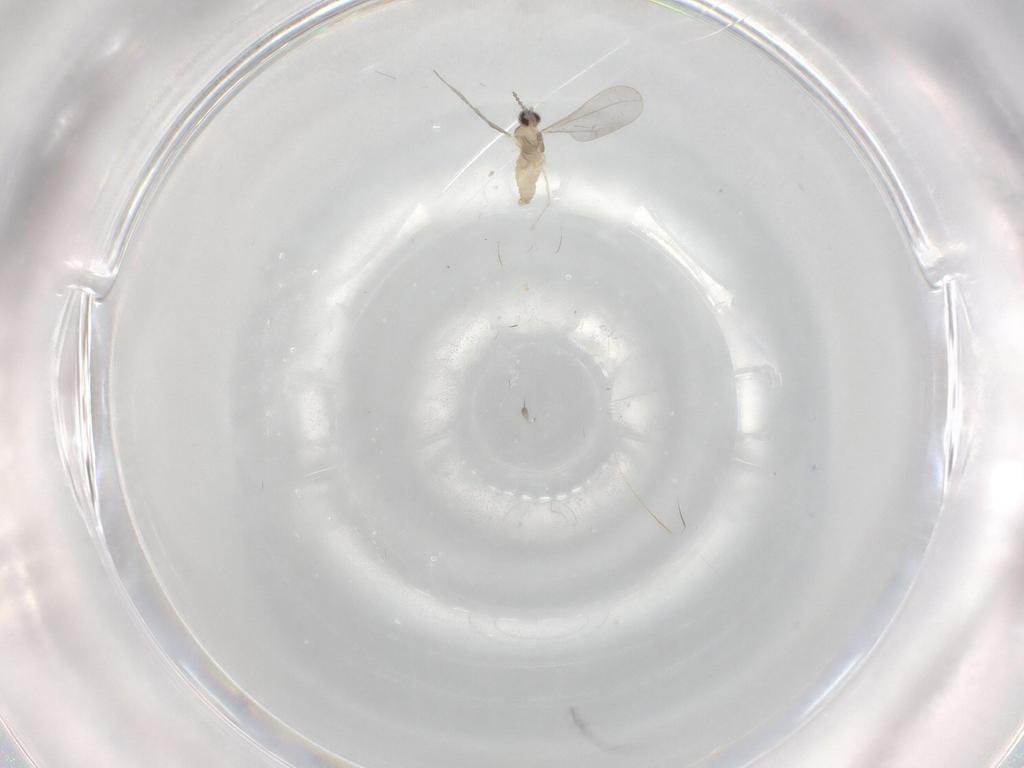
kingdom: Animalia
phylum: Arthropoda
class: Insecta
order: Diptera
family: Cecidomyiidae
